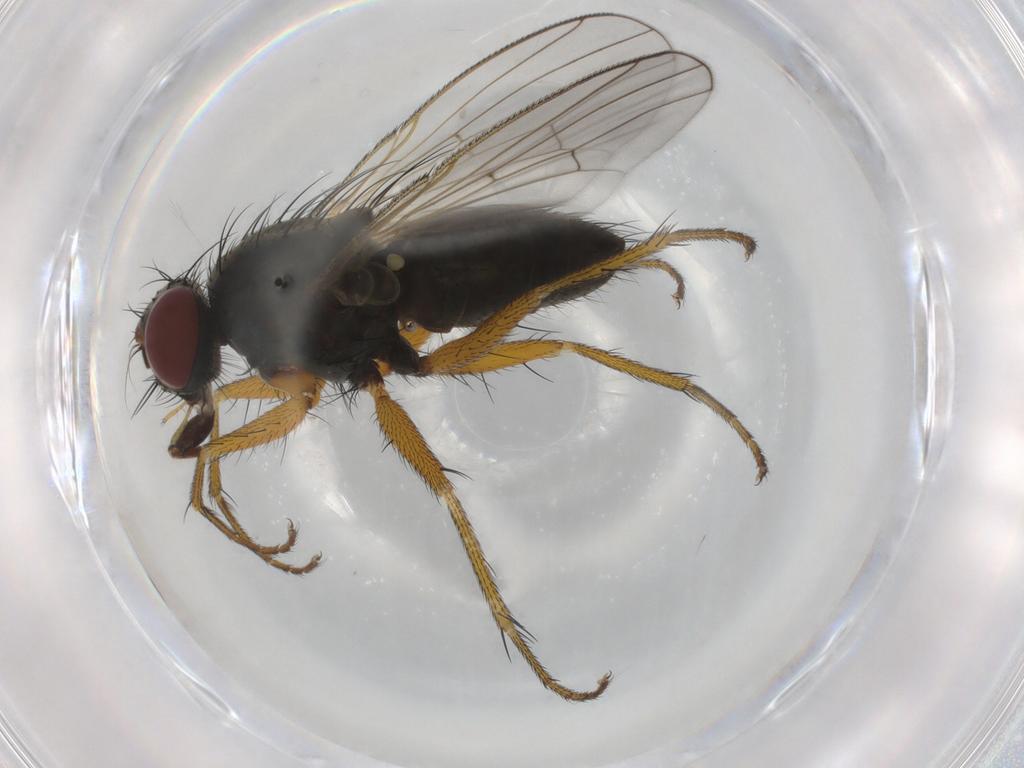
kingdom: Animalia
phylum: Arthropoda
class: Insecta
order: Diptera
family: Muscidae
